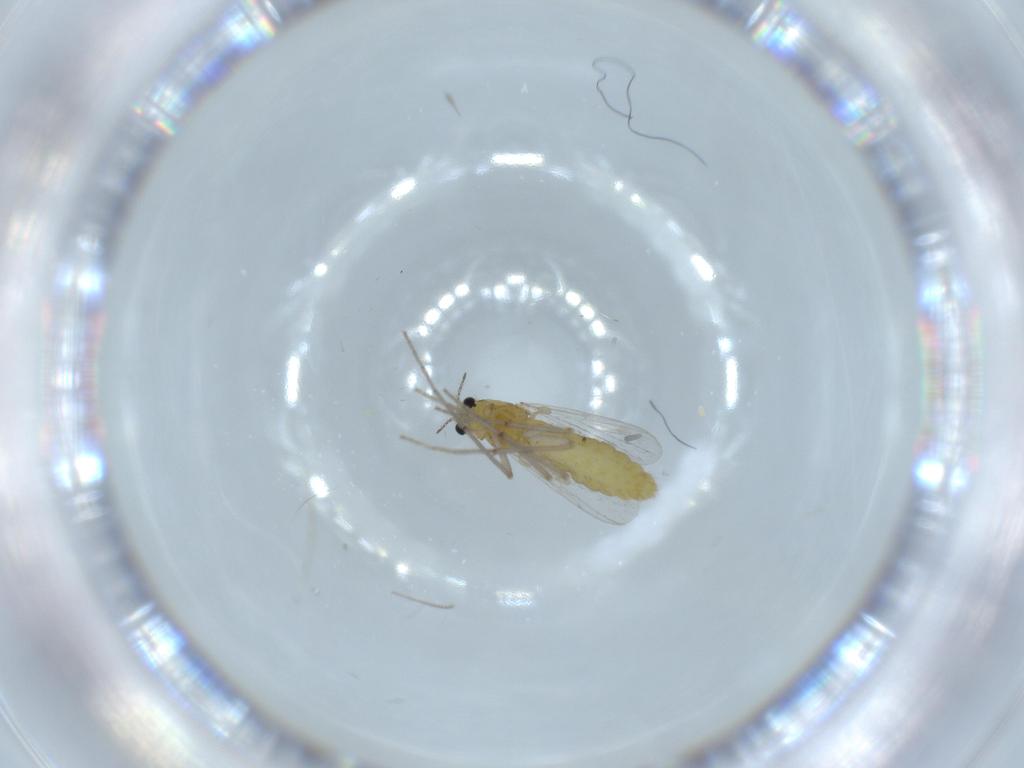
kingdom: Animalia
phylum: Arthropoda
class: Insecta
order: Diptera
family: Chironomidae
